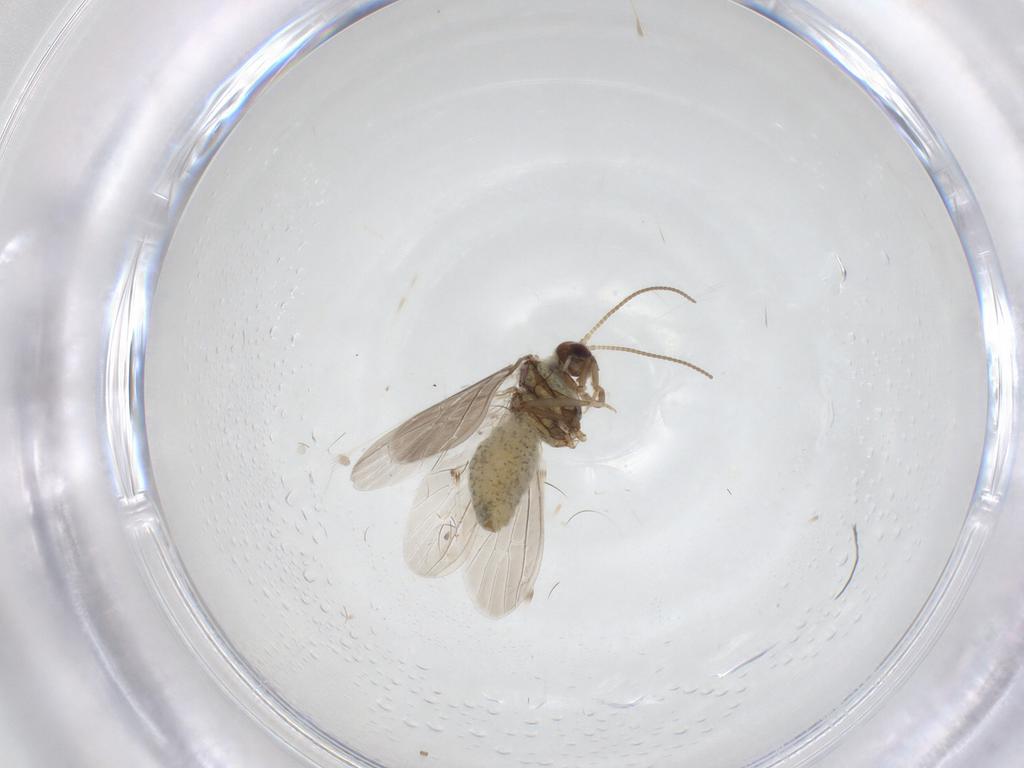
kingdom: Animalia
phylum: Arthropoda
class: Insecta
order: Neuroptera
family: Coniopterygidae
